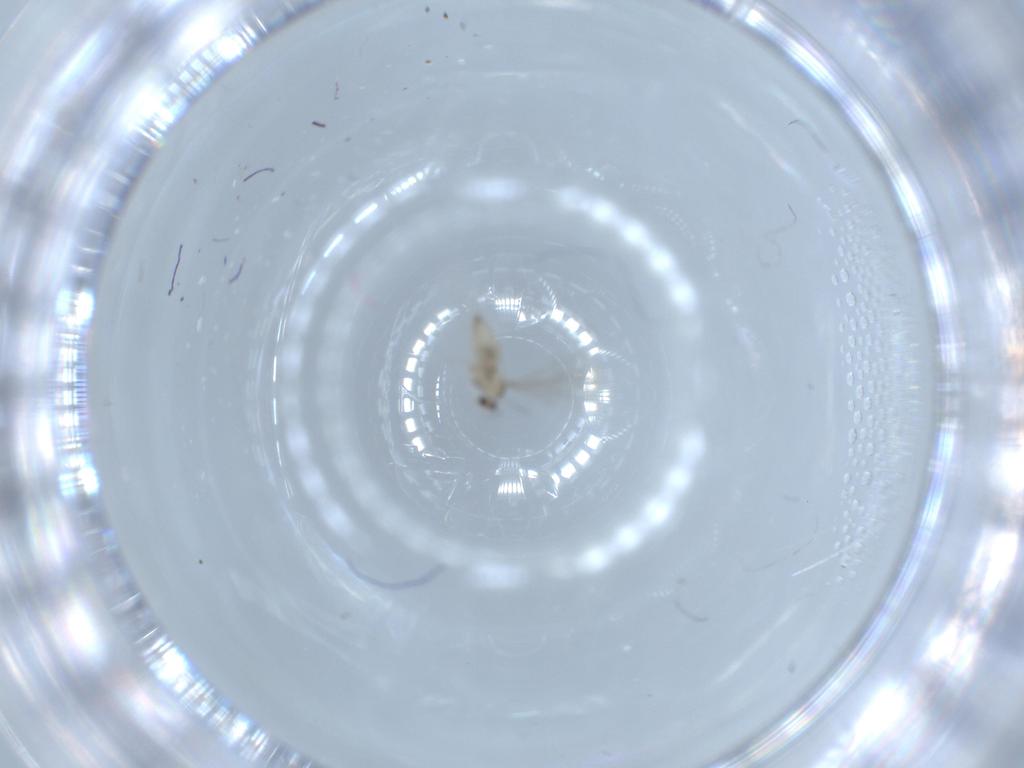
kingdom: Animalia
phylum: Arthropoda
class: Insecta
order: Diptera
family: Cecidomyiidae
